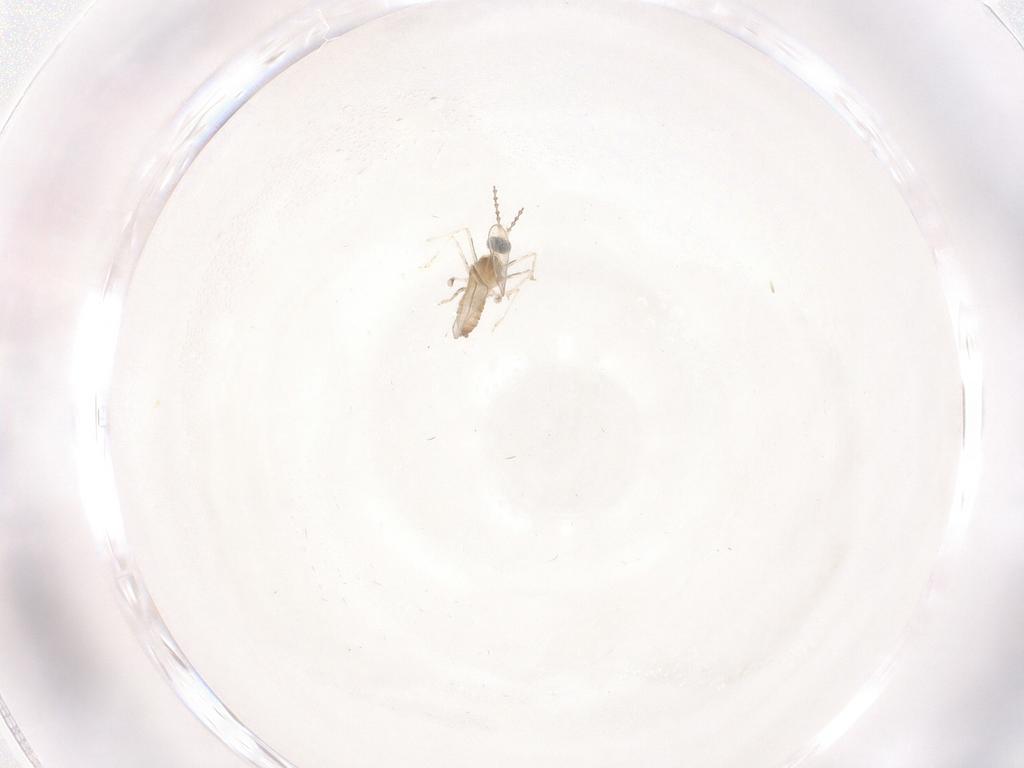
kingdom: Animalia
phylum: Arthropoda
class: Insecta
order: Diptera
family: Cecidomyiidae
